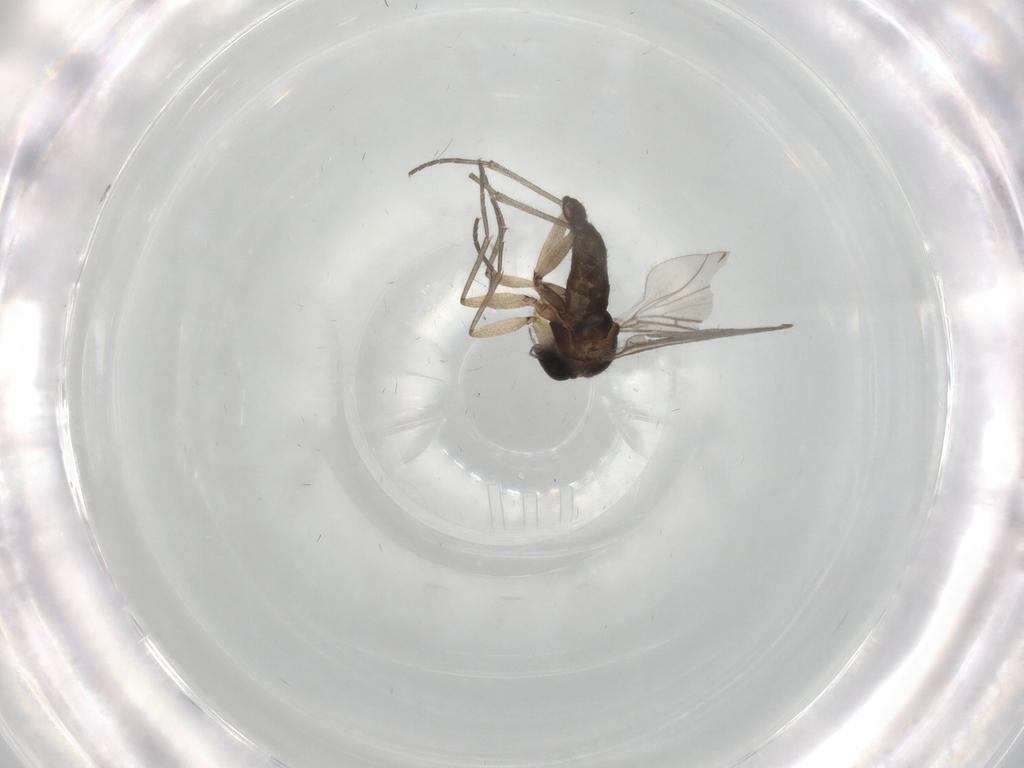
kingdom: Animalia
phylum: Arthropoda
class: Insecta
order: Diptera
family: Sciaridae
